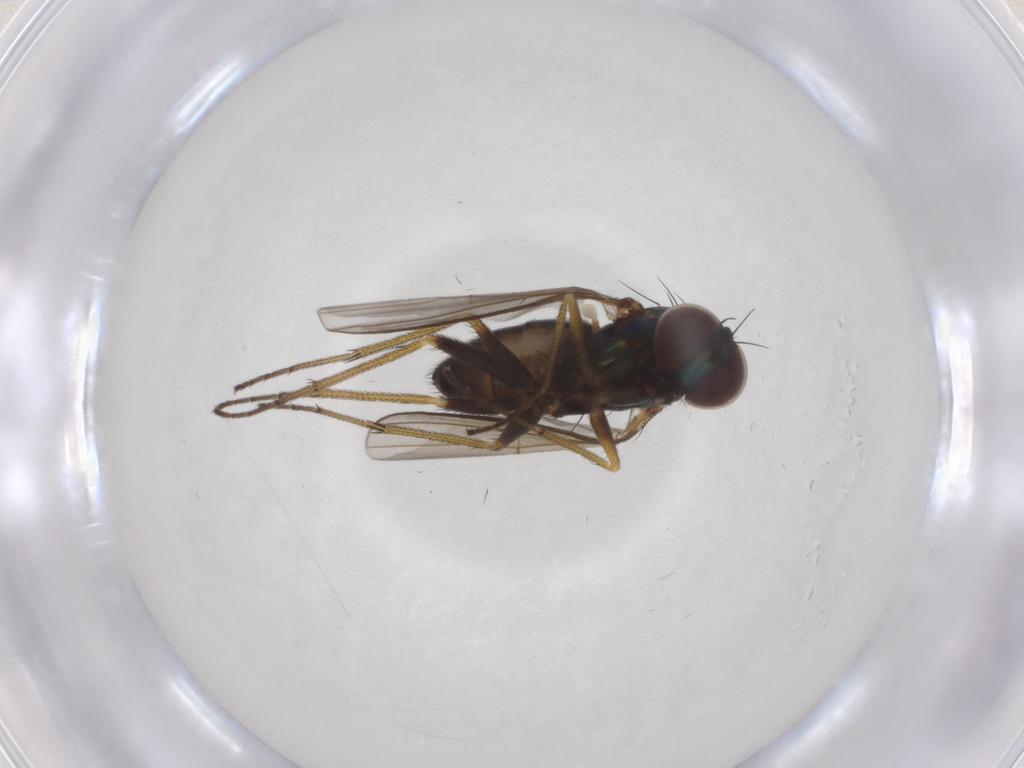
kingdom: Animalia
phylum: Arthropoda
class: Insecta
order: Diptera
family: Dolichopodidae
